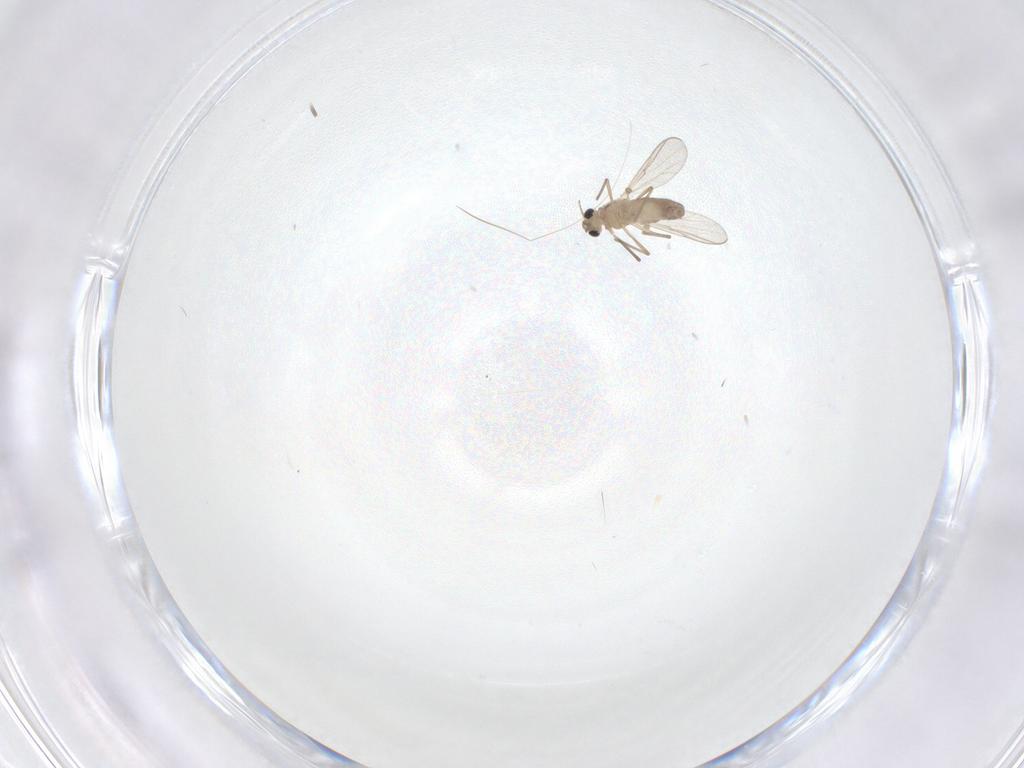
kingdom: Animalia
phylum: Arthropoda
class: Insecta
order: Diptera
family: Chironomidae
